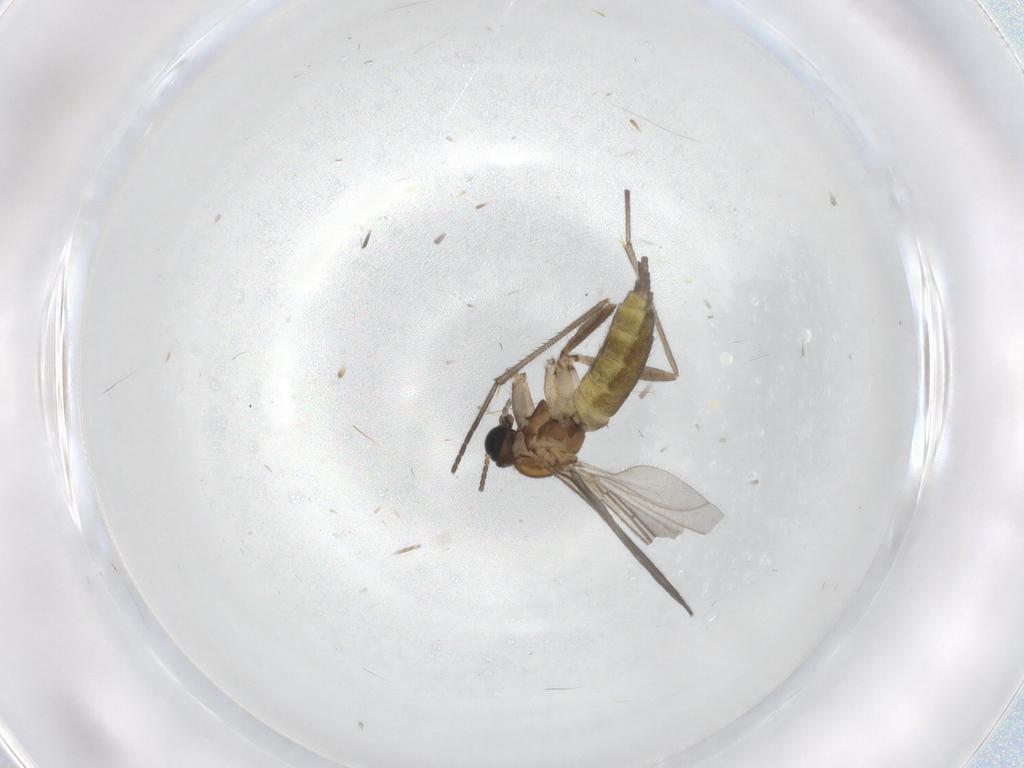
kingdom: Animalia
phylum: Arthropoda
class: Insecta
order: Diptera
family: Sciaridae
